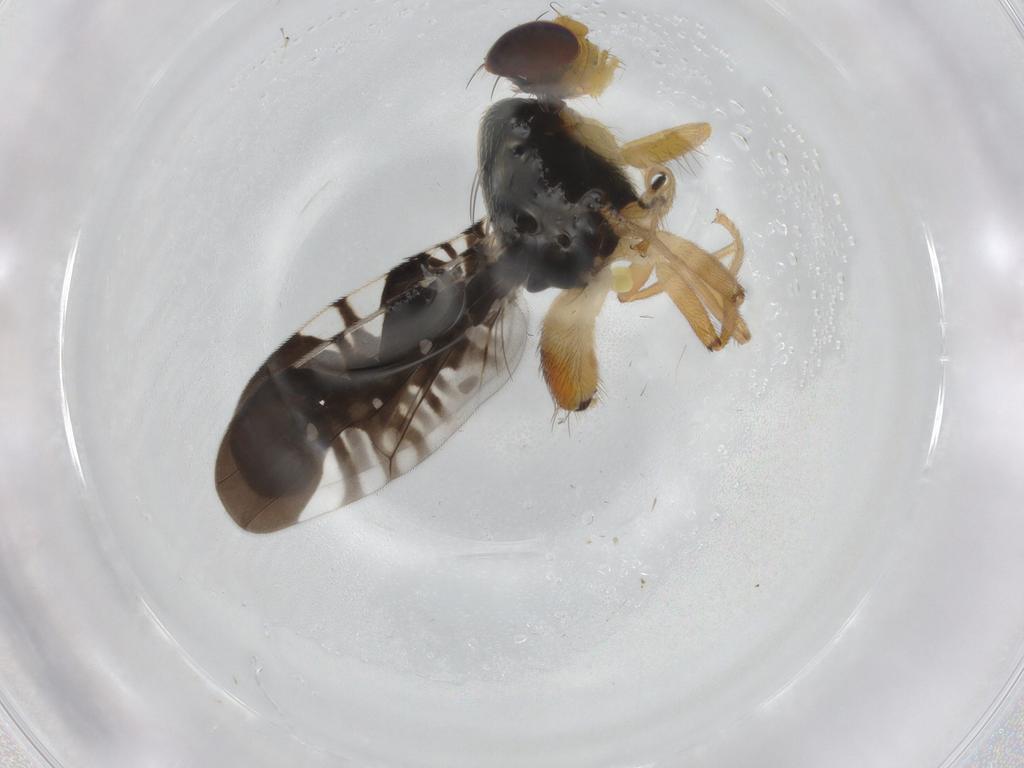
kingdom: Animalia
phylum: Arthropoda
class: Insecta
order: Diptera
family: Tephritidae
